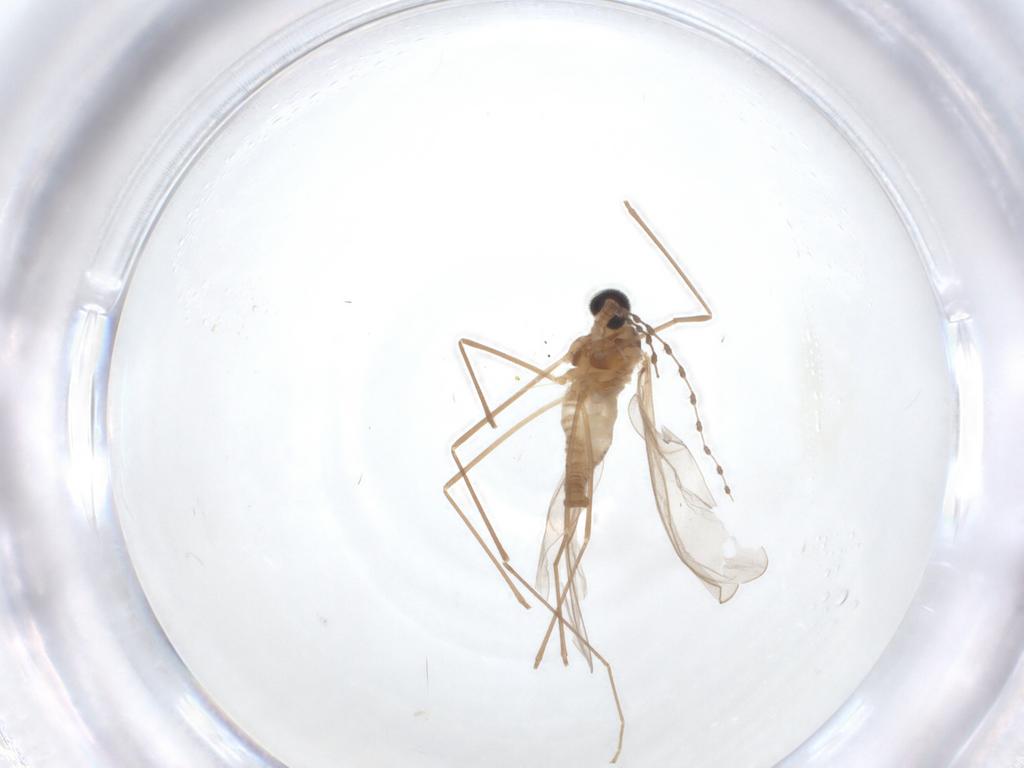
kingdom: Animalia
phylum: Arthropoda
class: Insecta
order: Diptera
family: Cecidomyiidae
